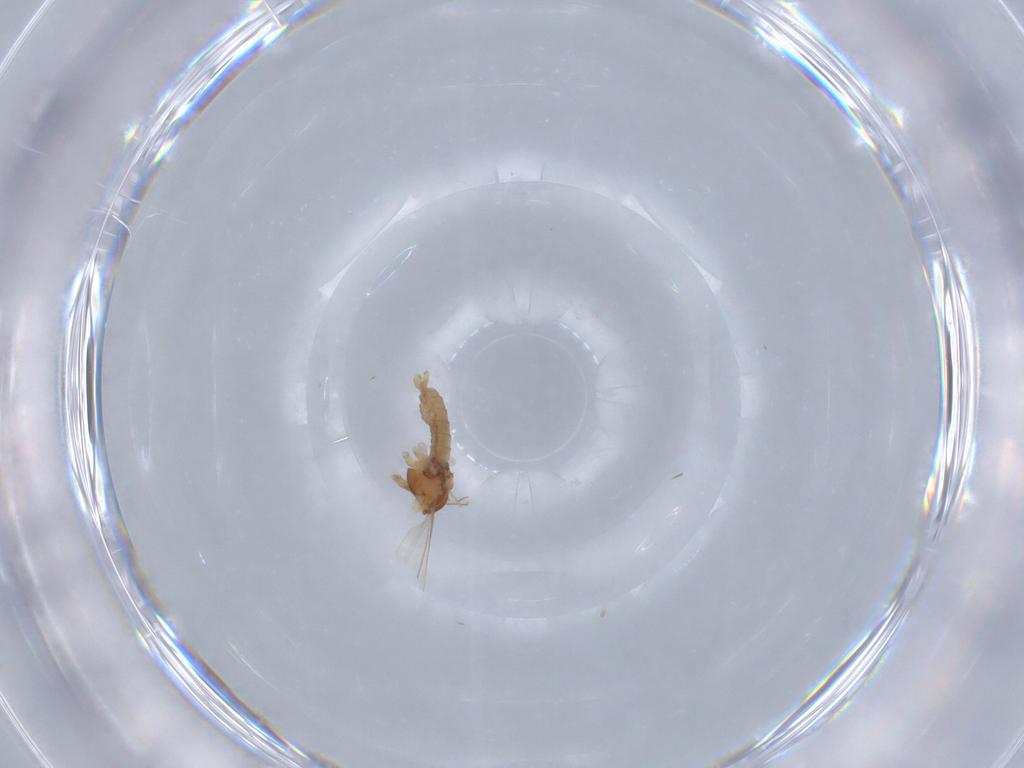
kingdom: Animalia
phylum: Arthropoda
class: Insecta
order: Diptera
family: Cecidomyiidae
